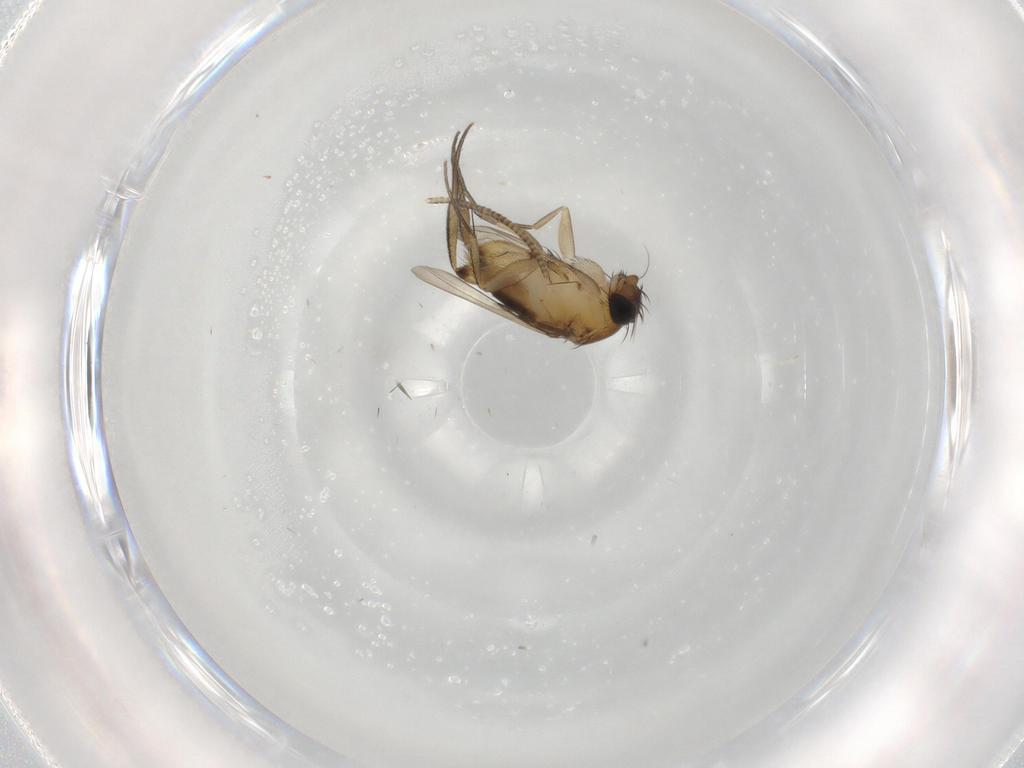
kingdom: Animalia
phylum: Arthropoda
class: Insecta
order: Diptera
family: Phoridae
